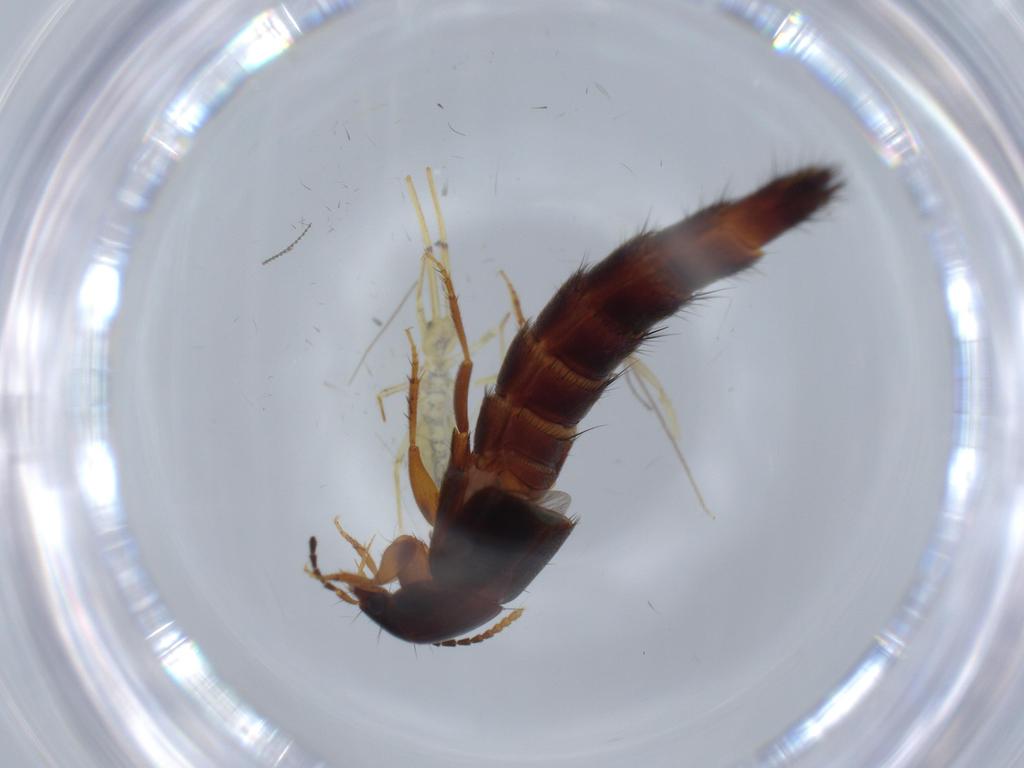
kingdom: Animalia
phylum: Arthropoda
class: Insecta
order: Coleoptera
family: Staphylinidae
